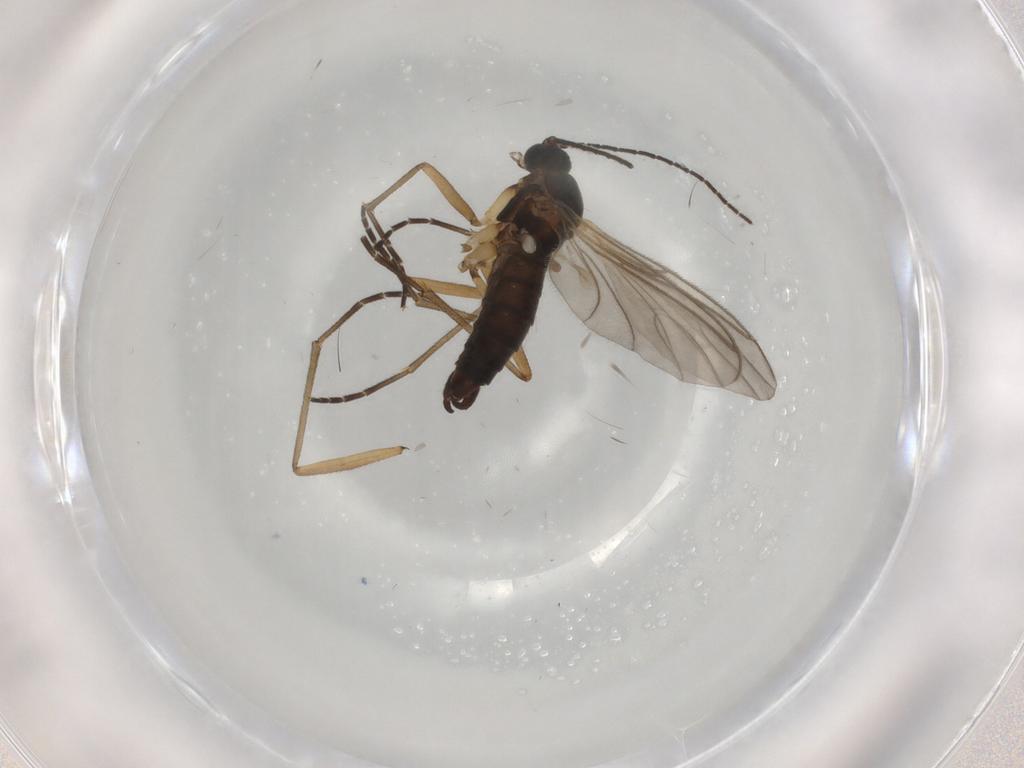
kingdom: Animalia
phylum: Arthropoda
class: Insecta
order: Diptera
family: Sciaridae
